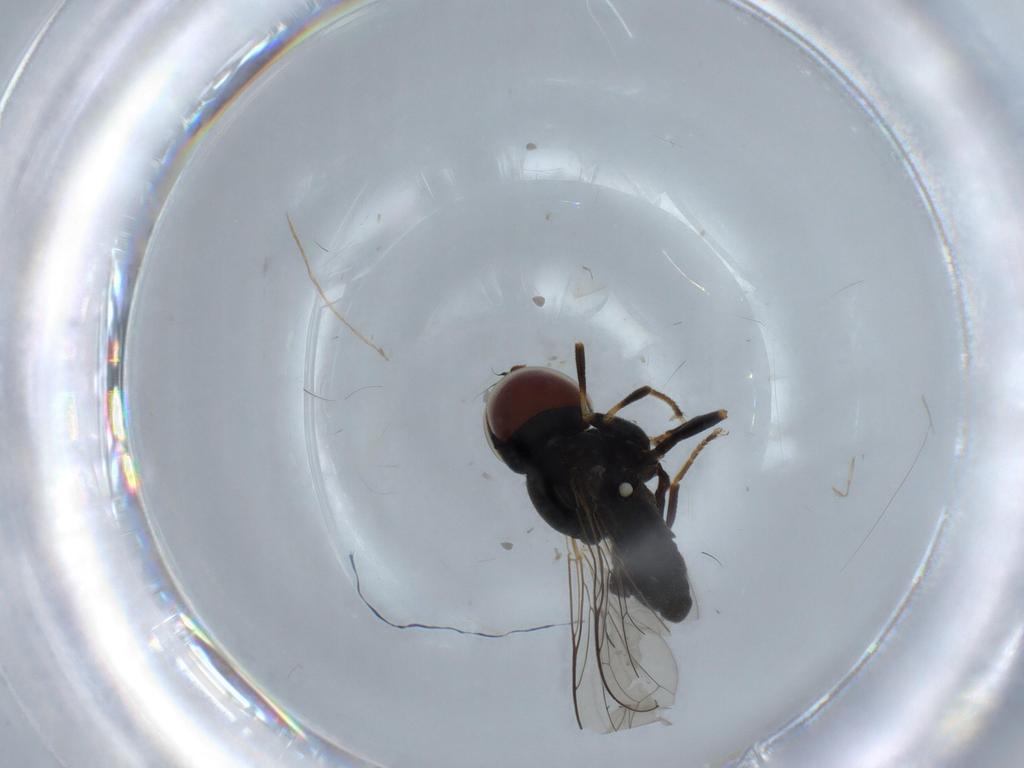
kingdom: Animalia
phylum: Arthropoda
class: Insecta
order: Diptera
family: Pipunculidae
